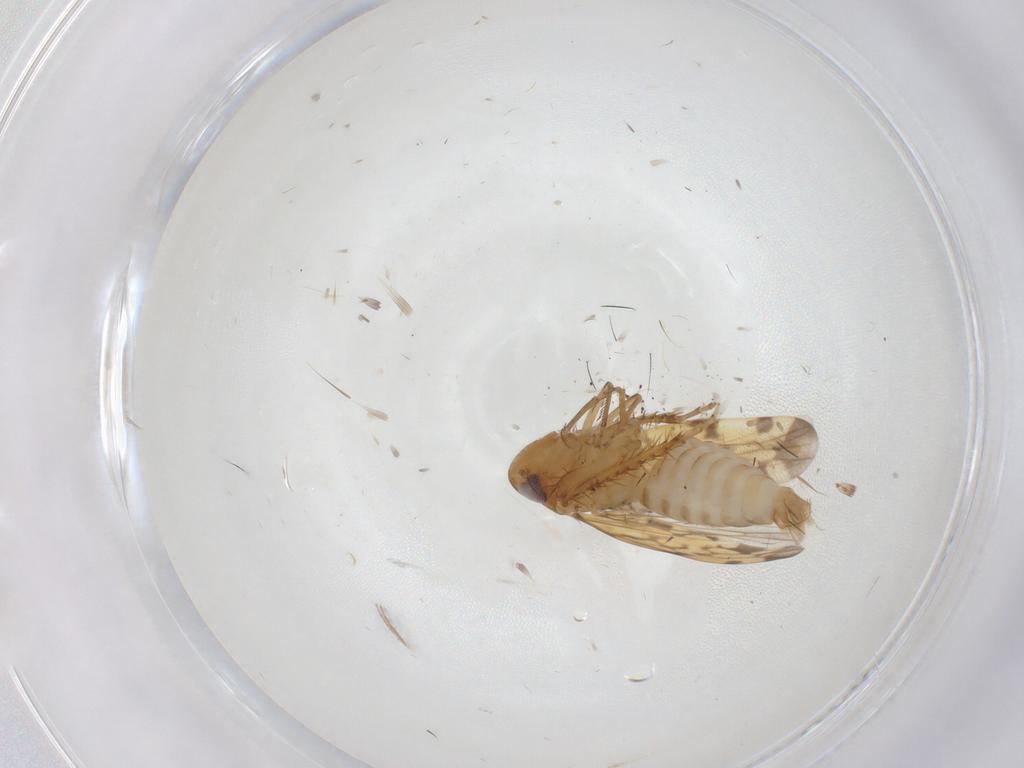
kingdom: Animalia
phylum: Arthropoda
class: Insecta
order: Hemiptera
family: Cicadellidae
